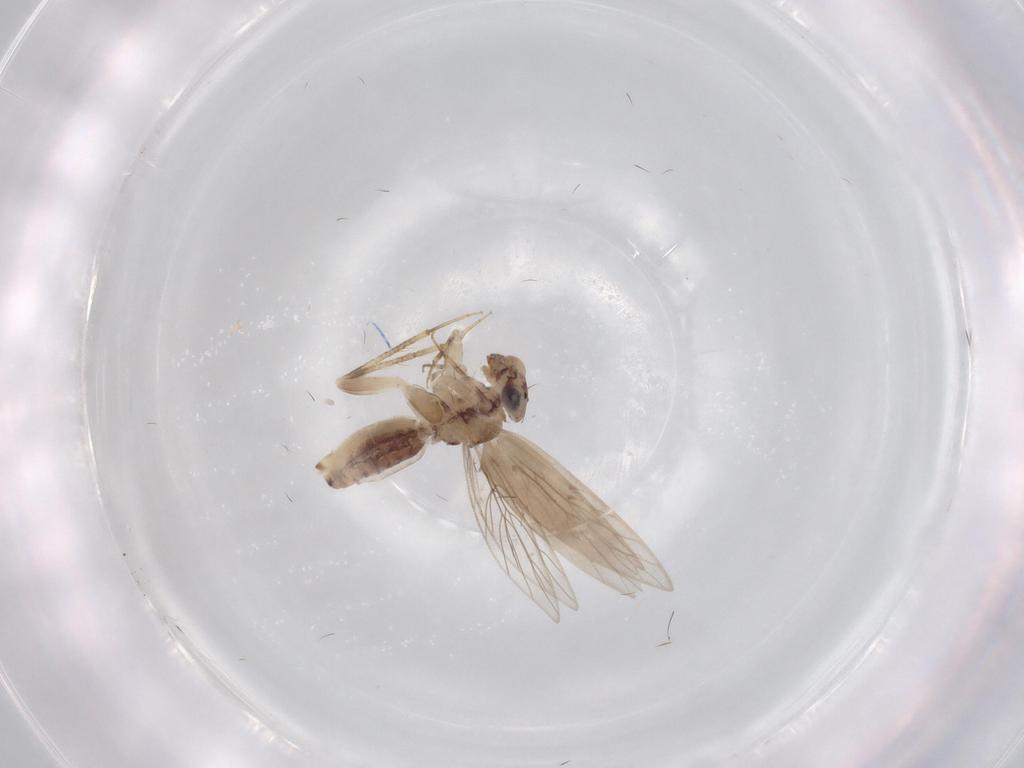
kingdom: Animalia
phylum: Arthropoda
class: Insecta
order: Psocodea
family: Lepidopsocidae
